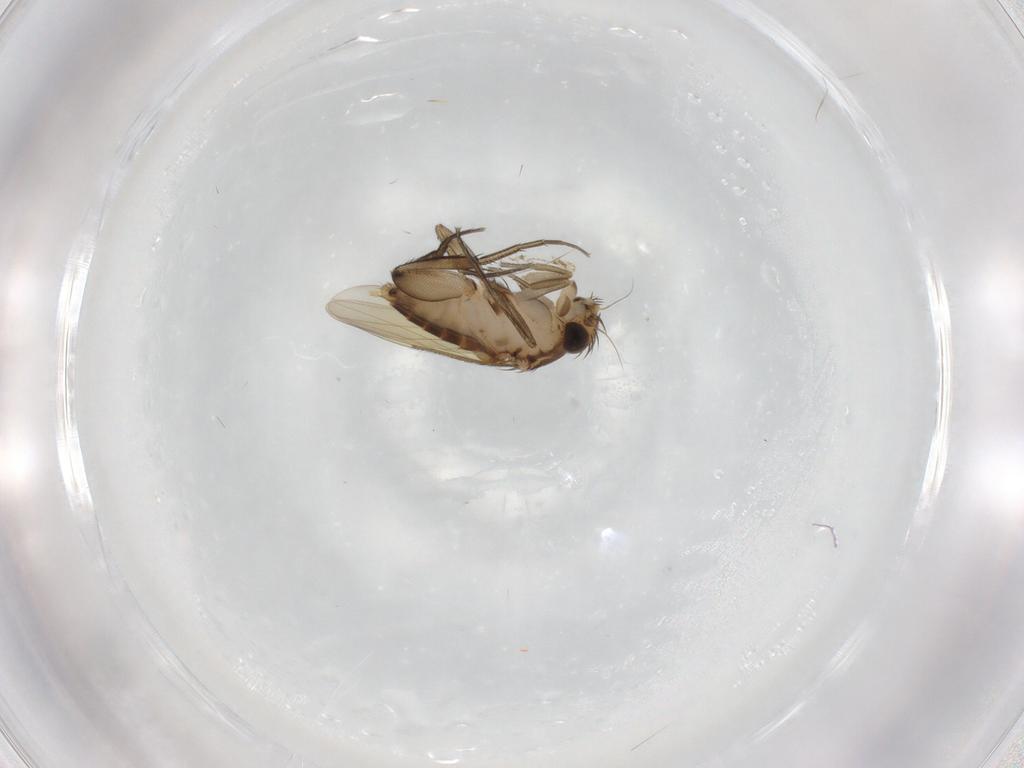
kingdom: Animalia
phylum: Arthropoda
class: Insecta
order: Diptera
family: Phoridae
